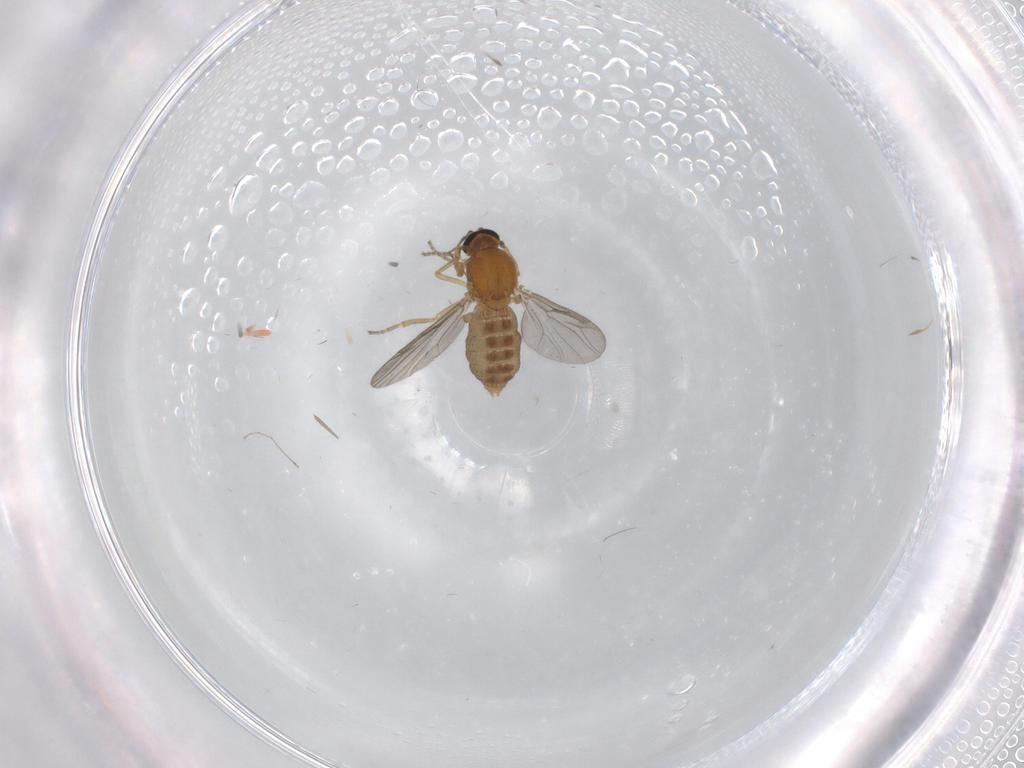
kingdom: Animalia
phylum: Arthropoda
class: Insecta
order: Diptera
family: Ceratopogonidae
